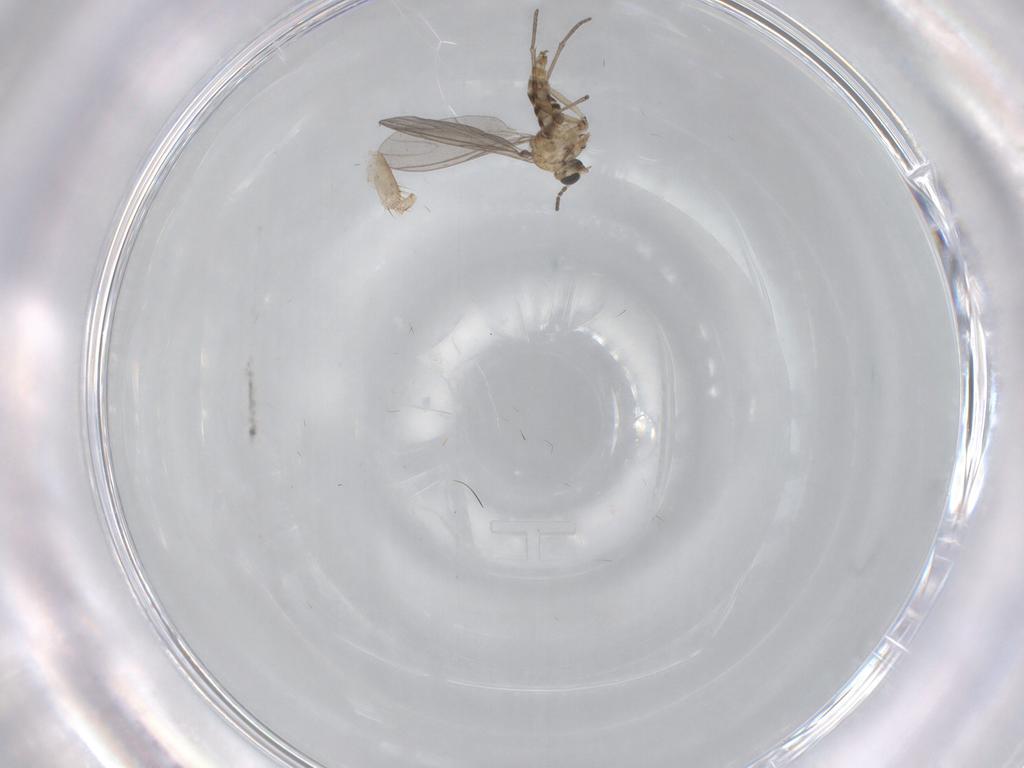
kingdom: Animalia
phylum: Arthropoda
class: Insecta
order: Diptera
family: Sciaridae
